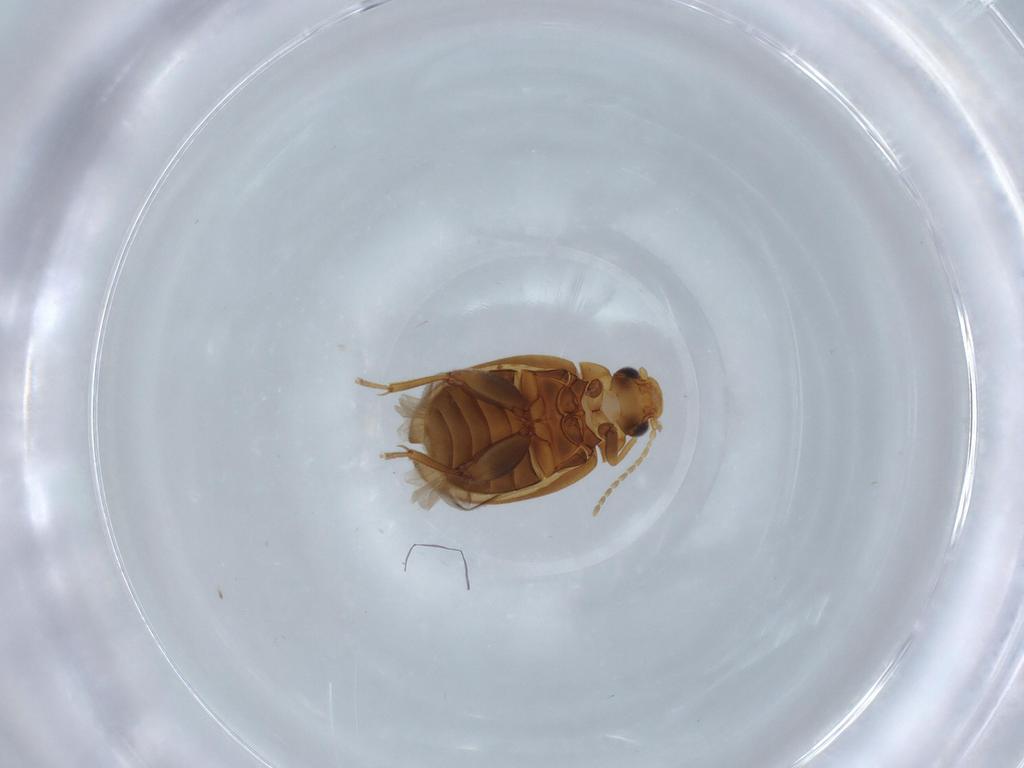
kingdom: Animalia
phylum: Arthropoda
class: Insecta
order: Coleoptera
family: Scirtidae
